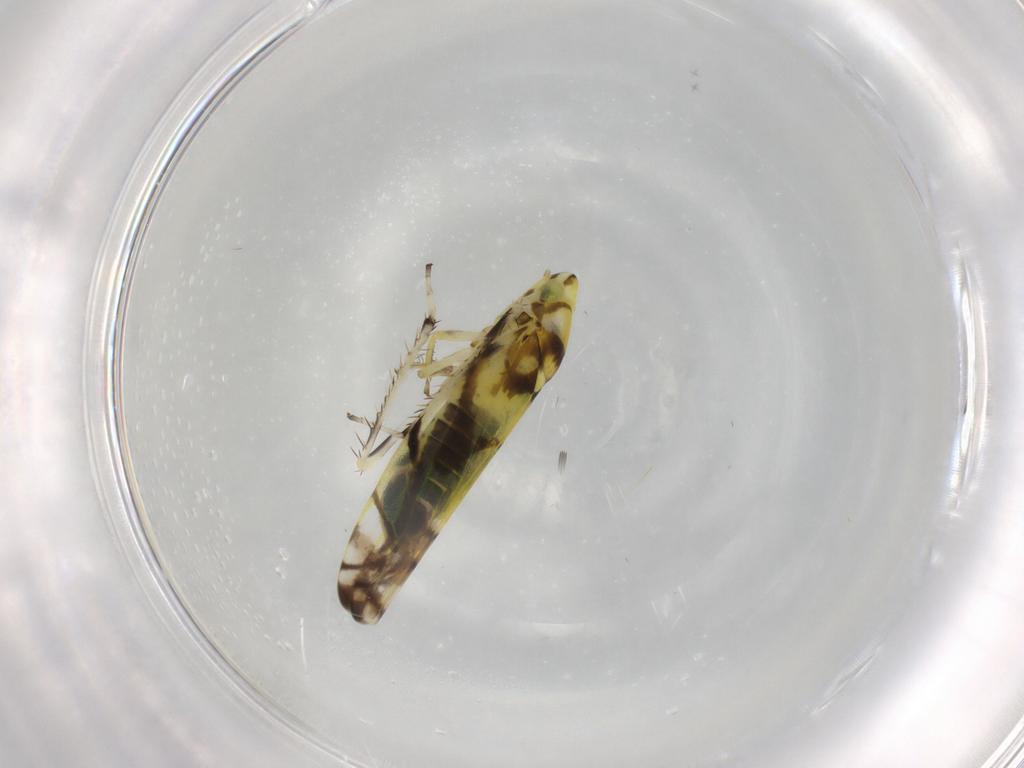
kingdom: Animalia
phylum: Arthropoda
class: Insecta
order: Hemiptera
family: Cicadellidae
